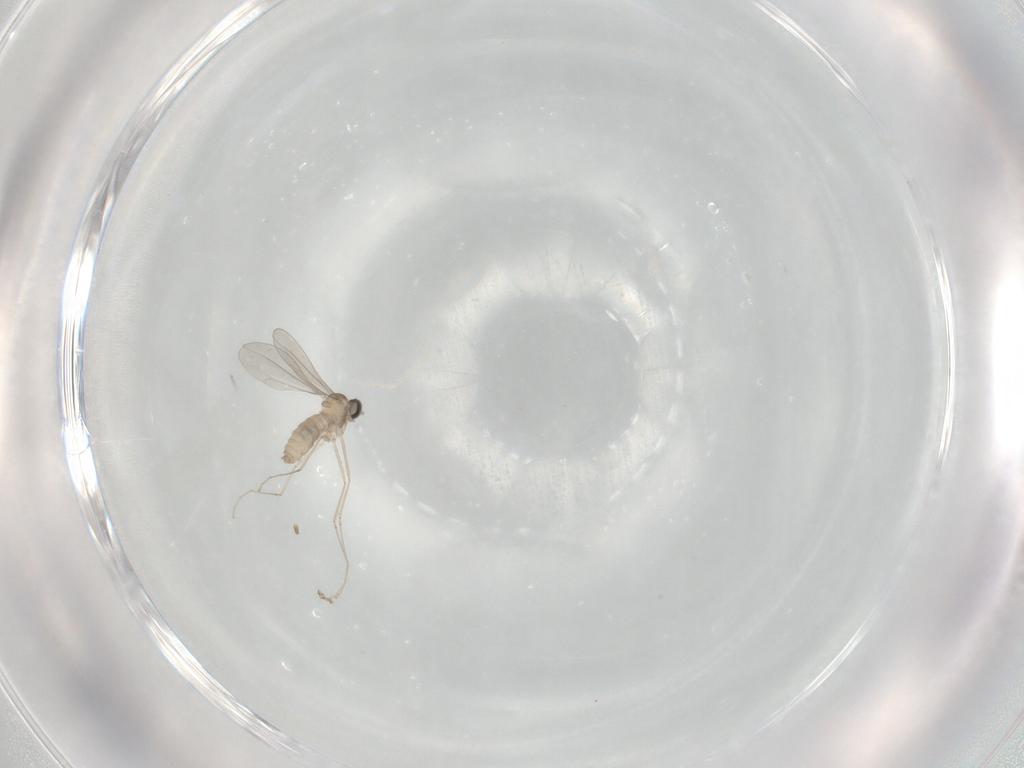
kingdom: Animalia
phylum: Arthropoda
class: Insecta
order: Diptera
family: Cecidomyiidae
